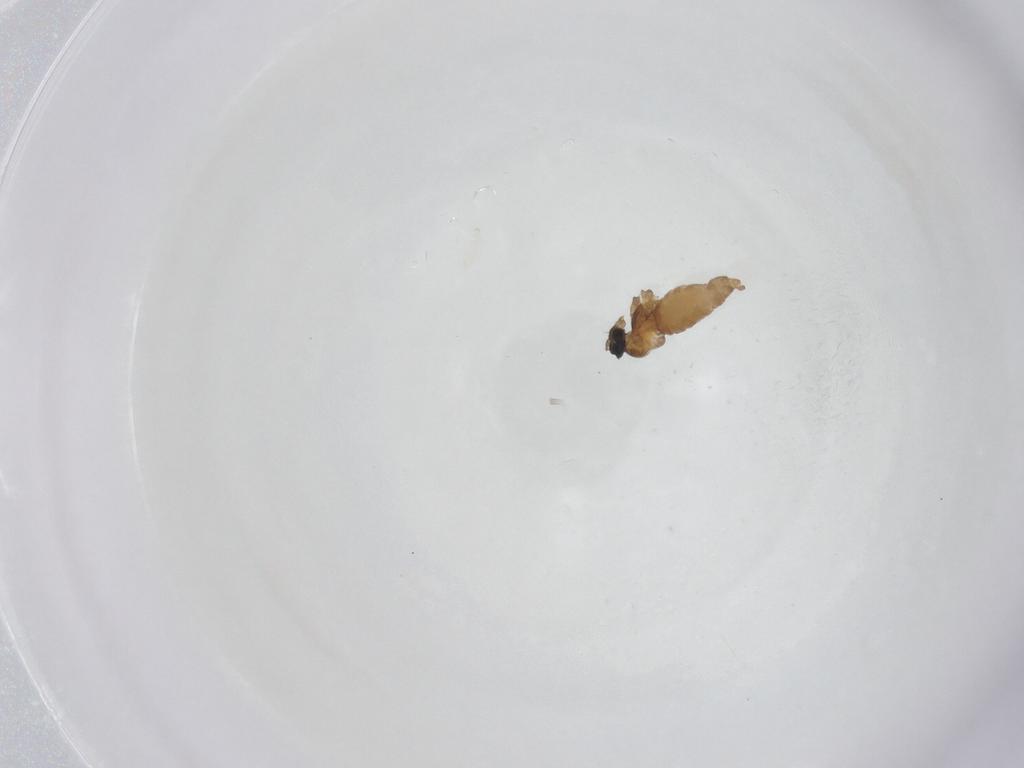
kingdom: Animalia
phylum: Arthropoda
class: Insecta
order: Diptera
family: Cecidomyiidae
